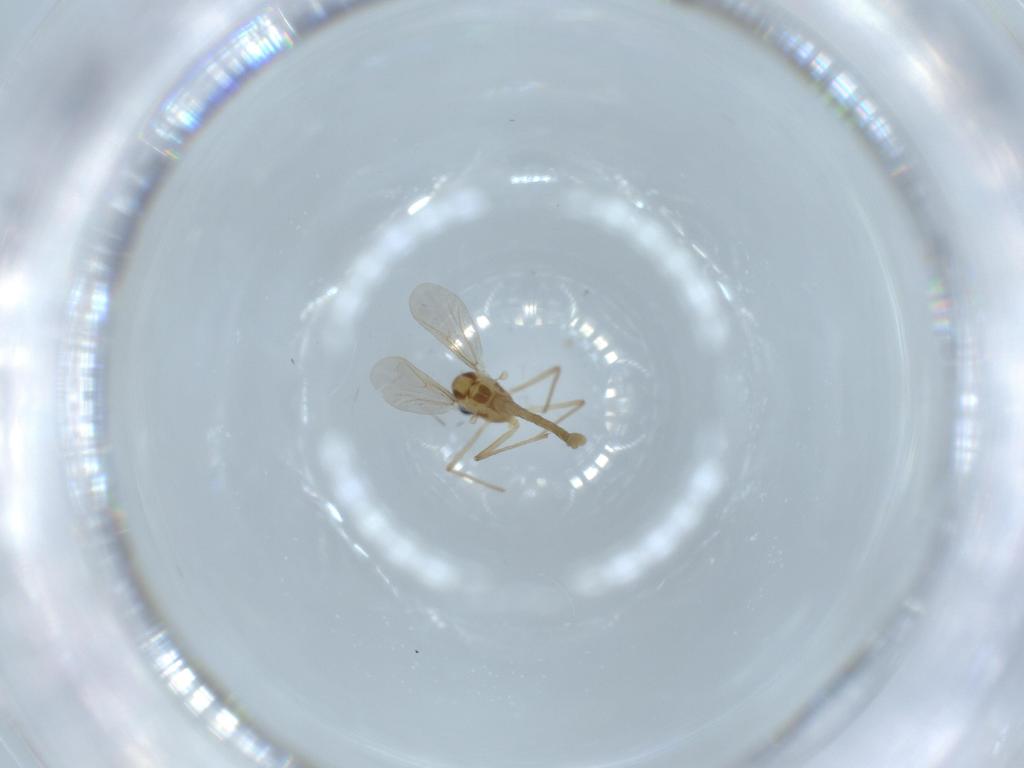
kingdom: Animalia
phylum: Arthropoda
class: Insecta
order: Diptera
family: Chironomidae
